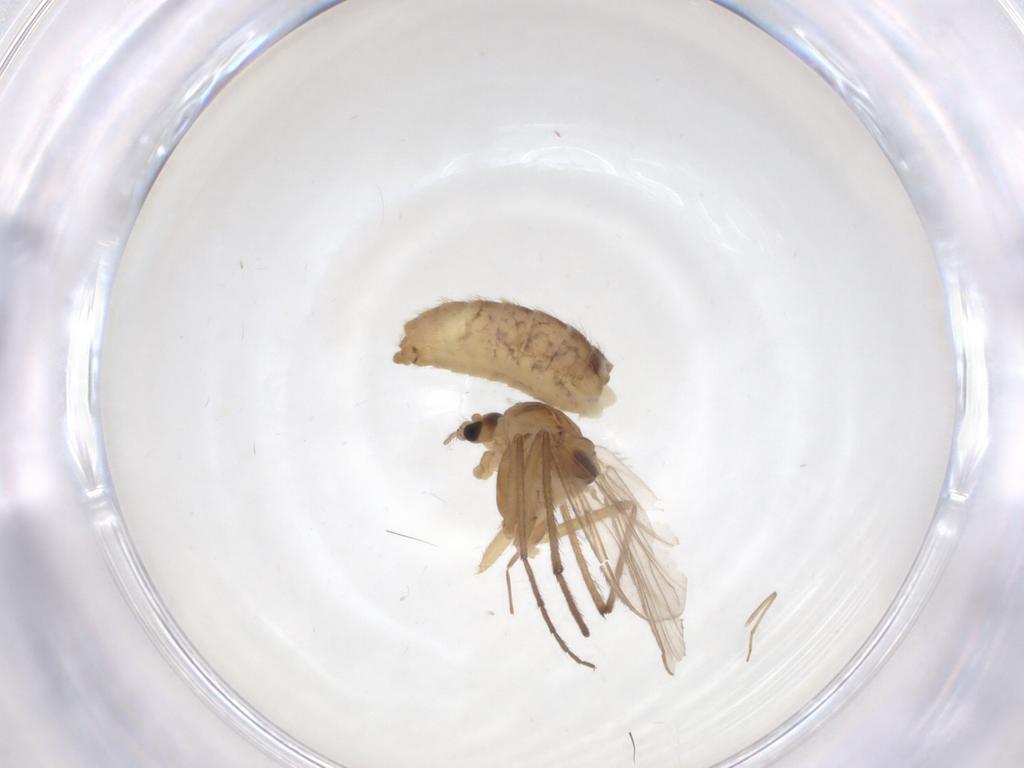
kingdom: Animalia
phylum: Arthropoda
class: Insecta
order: Diptera
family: Chironomidae
